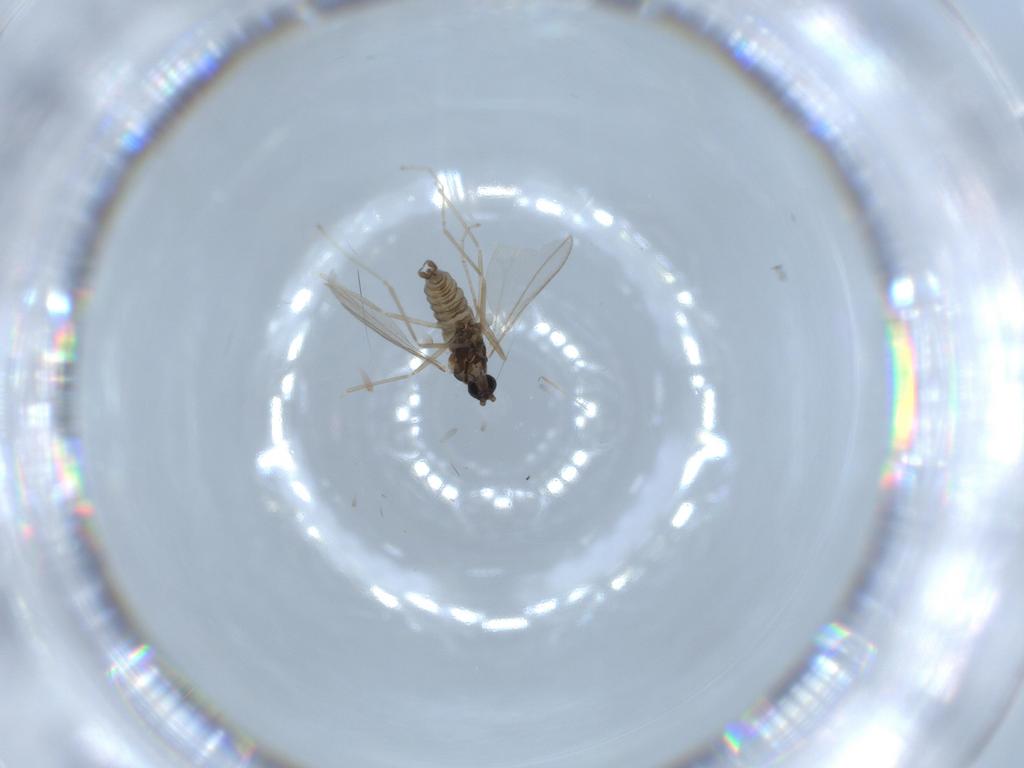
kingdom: Animalia
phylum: Arthropoda
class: Insecta
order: Diptera
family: Cecidomyiidae
